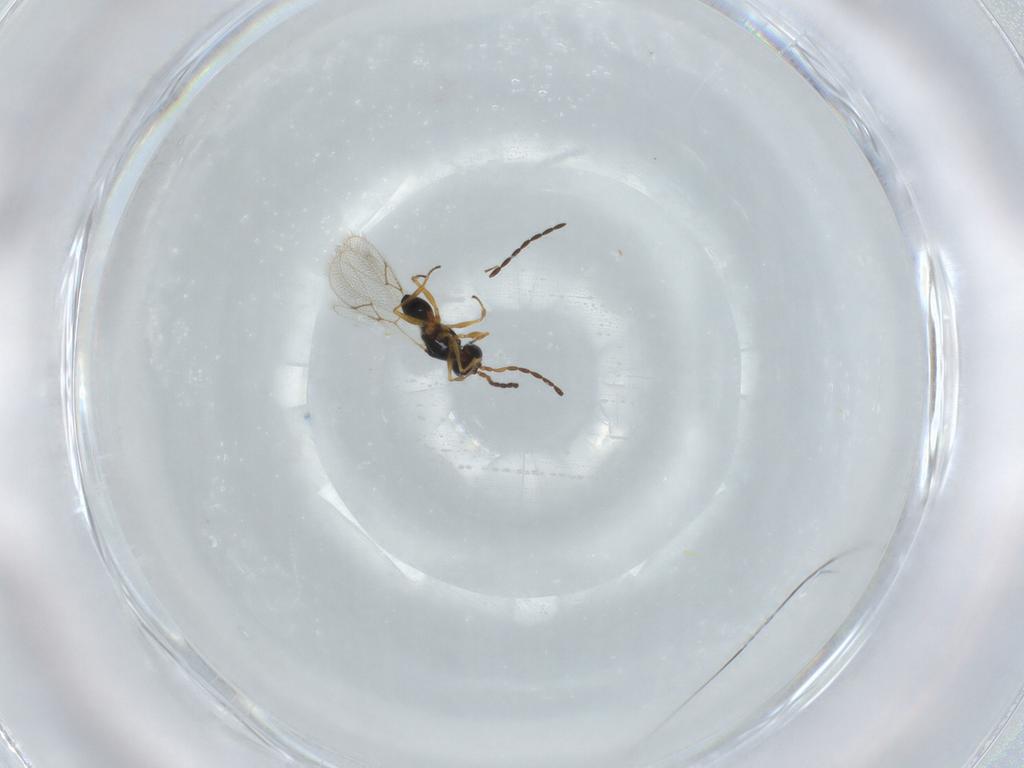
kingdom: Animalia
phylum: Arthropoda
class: Insecta
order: Hymenoptera
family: Figitidae
